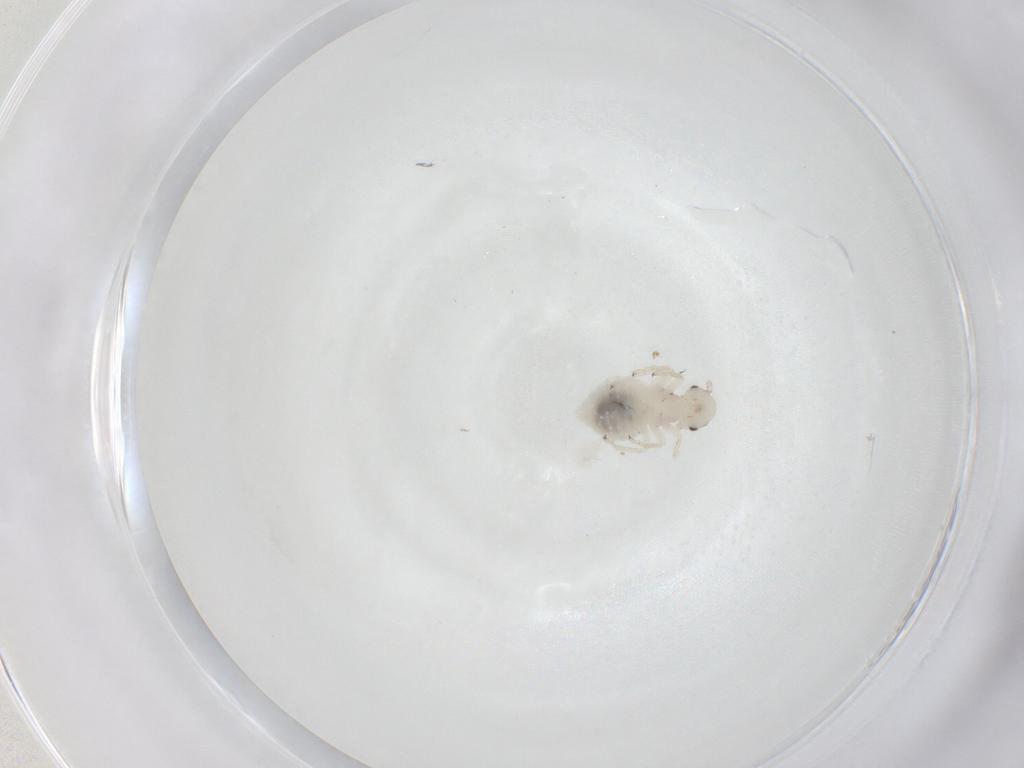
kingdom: Animalia
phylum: Arthropoda
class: Insecta
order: Psocodea
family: Amphipsocidae
